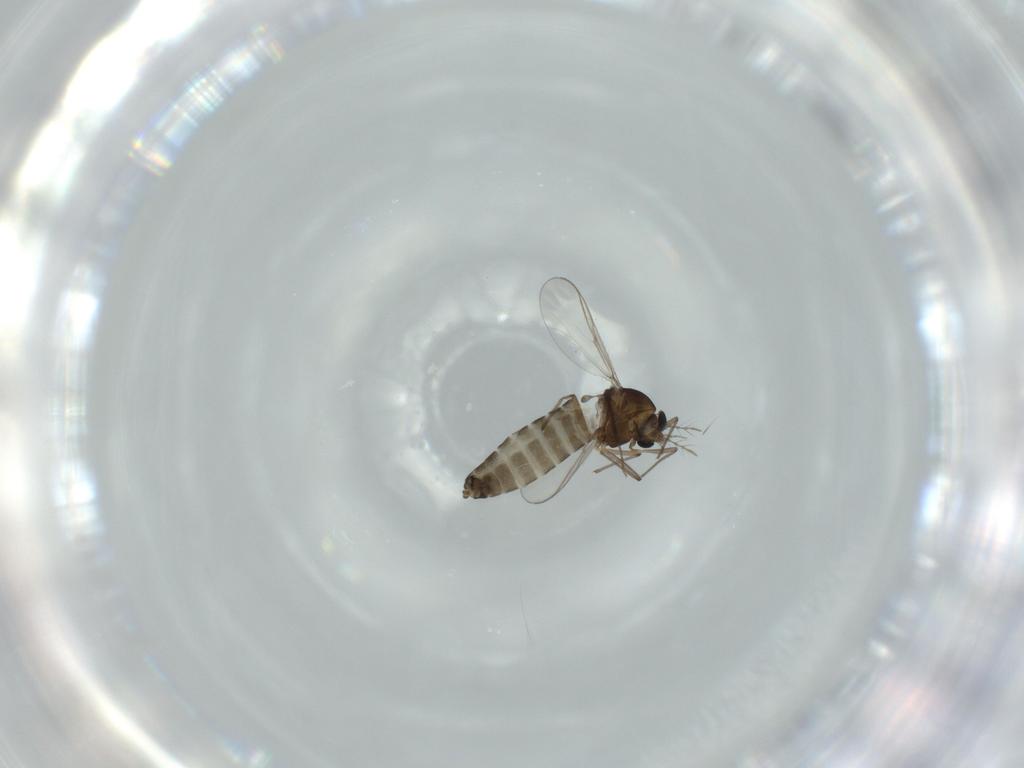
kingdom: Animalia
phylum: Arthropoda
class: Insecta
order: Diptera
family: Chironomidae
